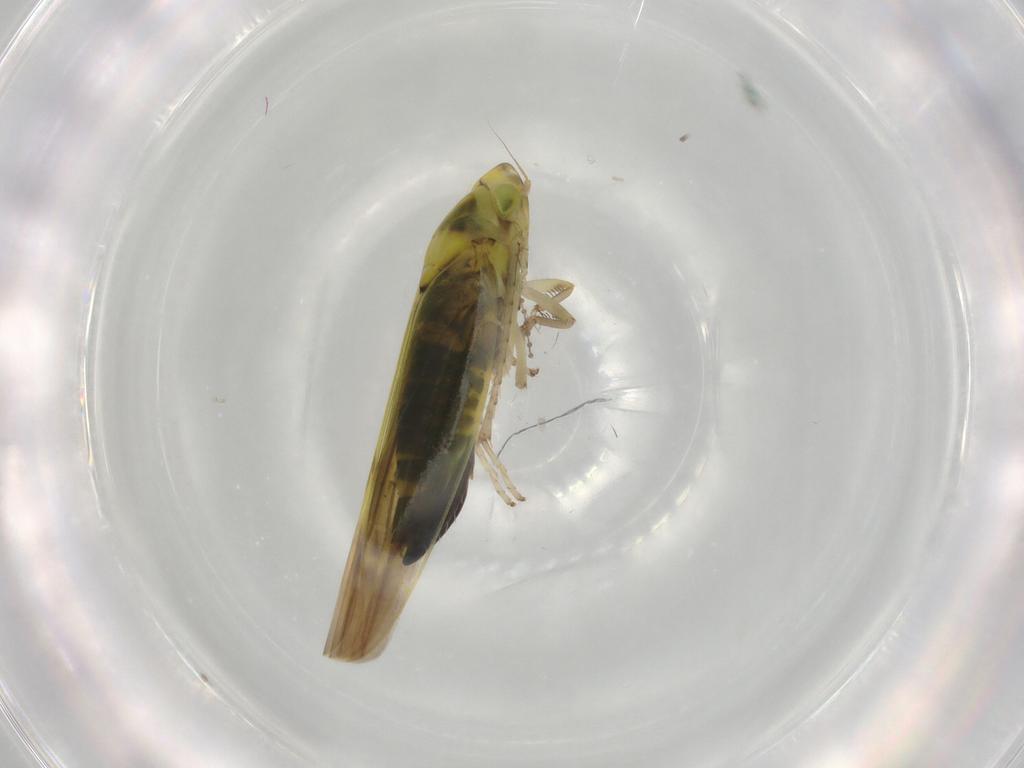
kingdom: Animalia
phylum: Arthropoda
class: Insecta
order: Hemiptera
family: Cicadellidae
